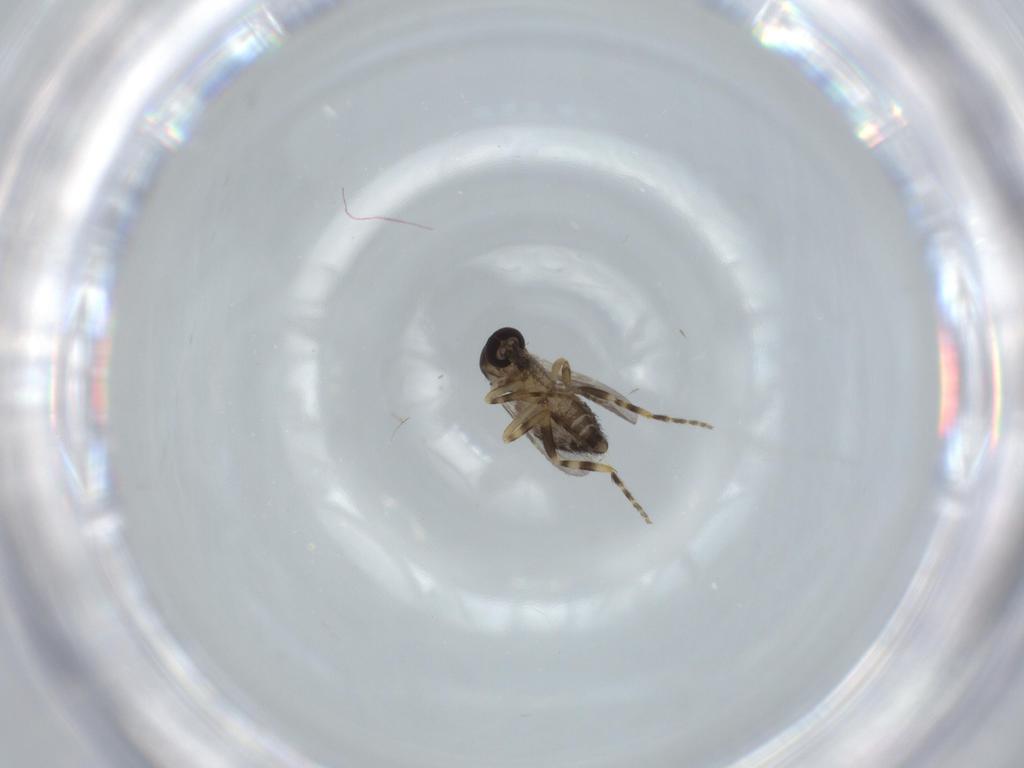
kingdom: Animalia
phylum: Arthropoda
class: Insecta
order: Diptera
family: Sciaridae
